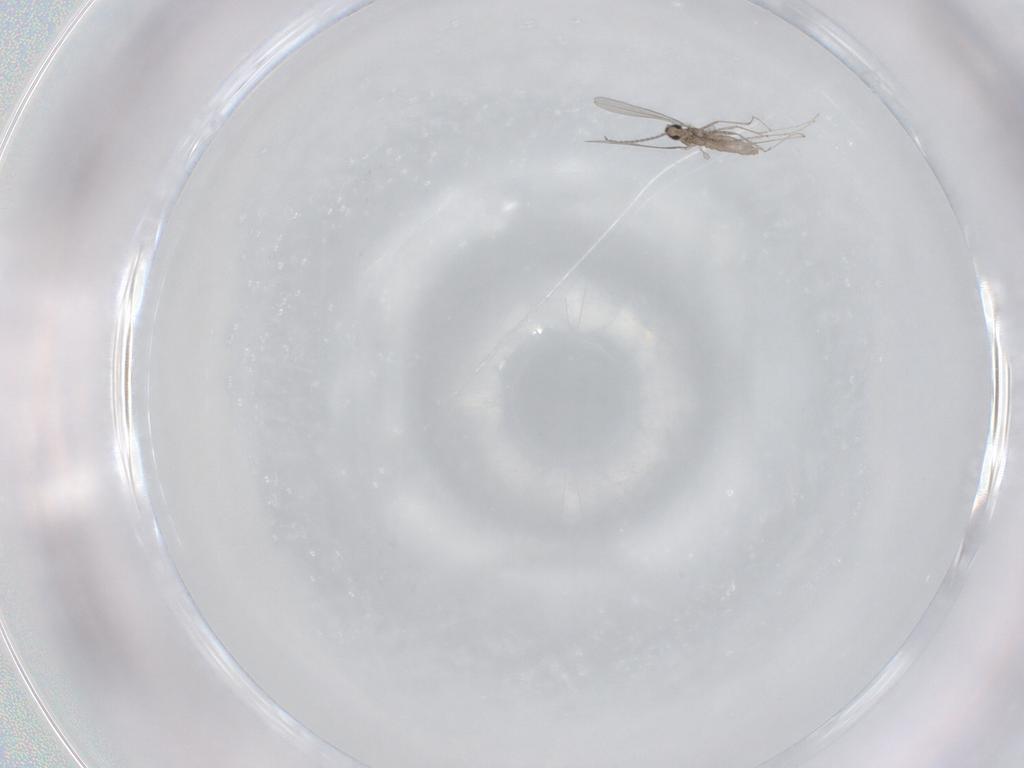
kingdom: Animalia
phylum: Arthropoda
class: Insecta
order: Diptera
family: Cecidomyiidae
